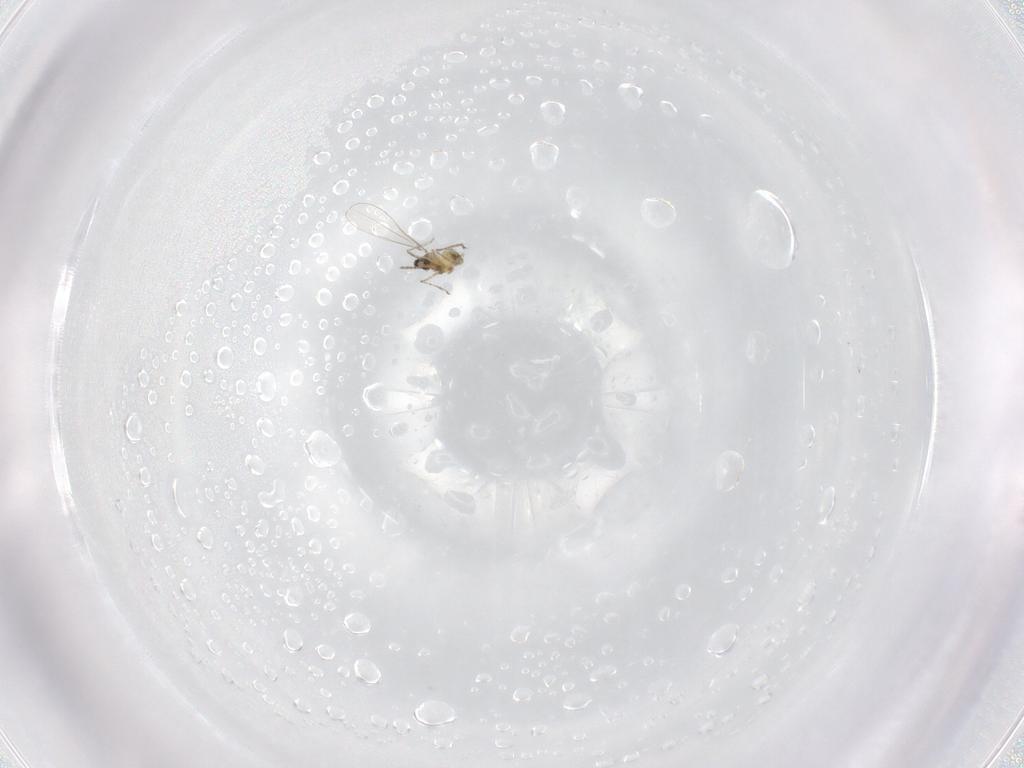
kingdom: Animalia
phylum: Arthropoda
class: Insecta
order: Diptera
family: Cecidomyiidae
